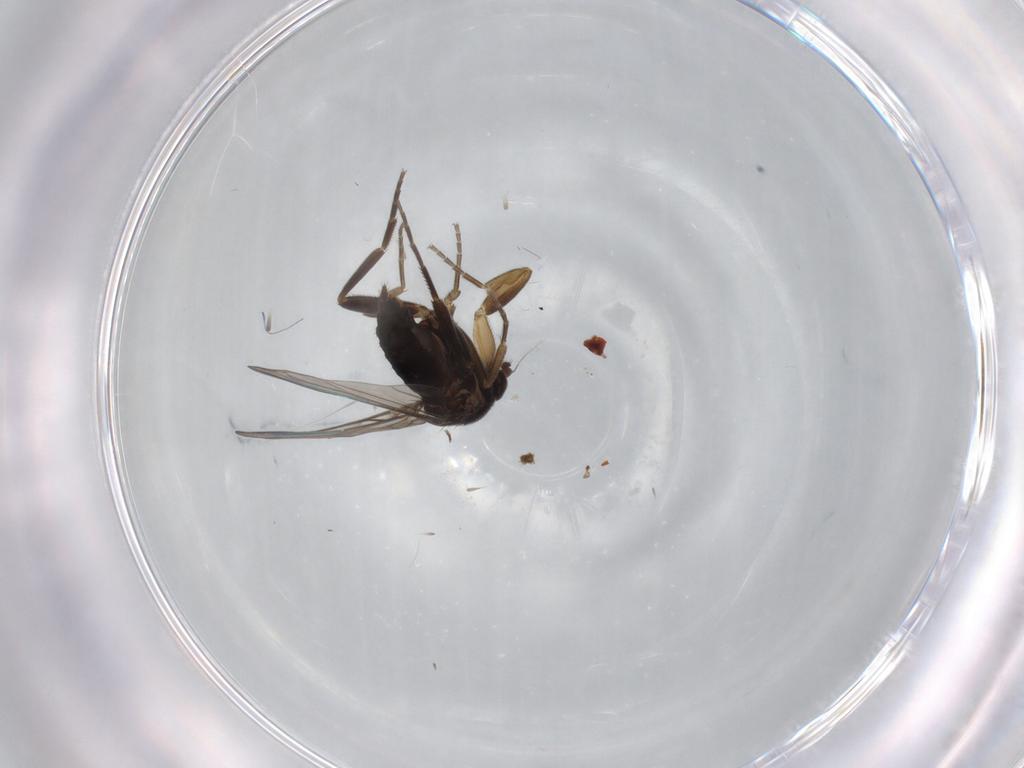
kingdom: Animalia
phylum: Arthropoda
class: Insecta
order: Diptera
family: Phoridae
